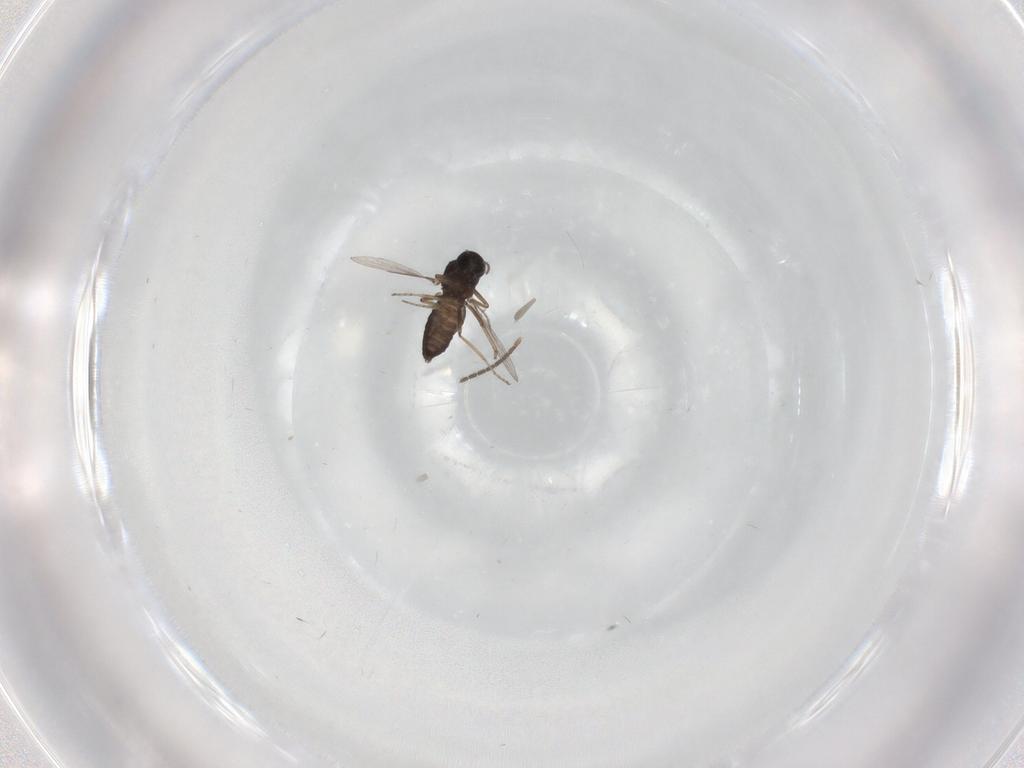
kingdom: Animalia
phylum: Arthropoda
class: Insecta
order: Diptera
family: Ceratopogonidae
